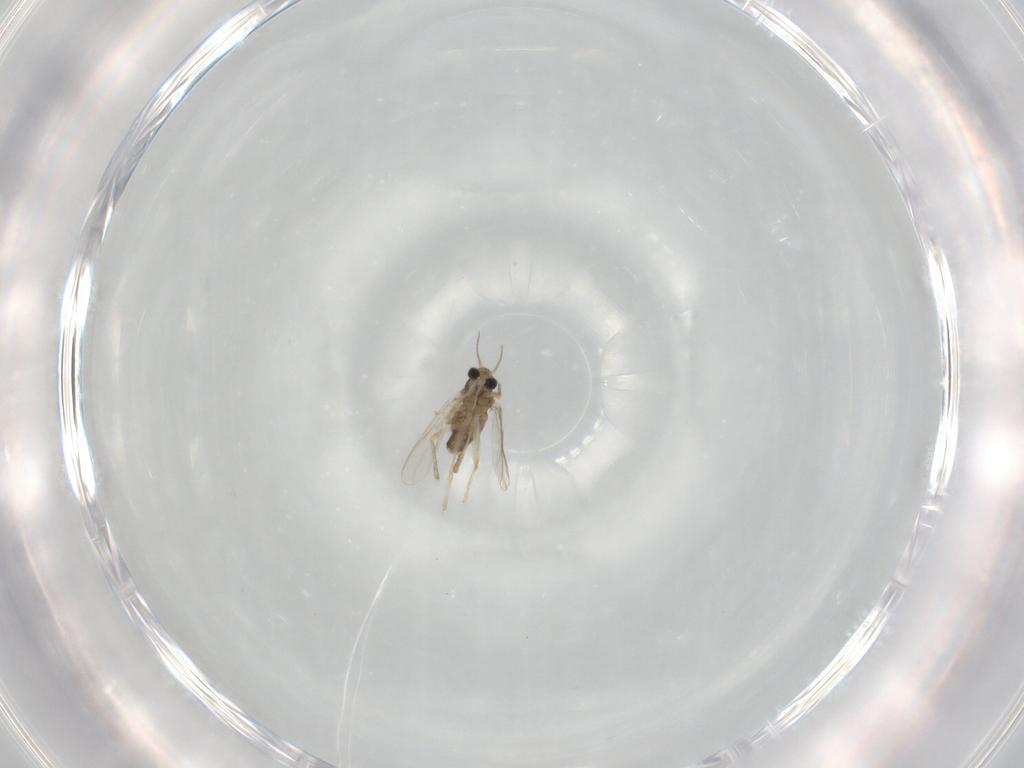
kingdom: Animalia
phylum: Arthropoda
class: Insecta
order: Diptera
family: Chironomidae
